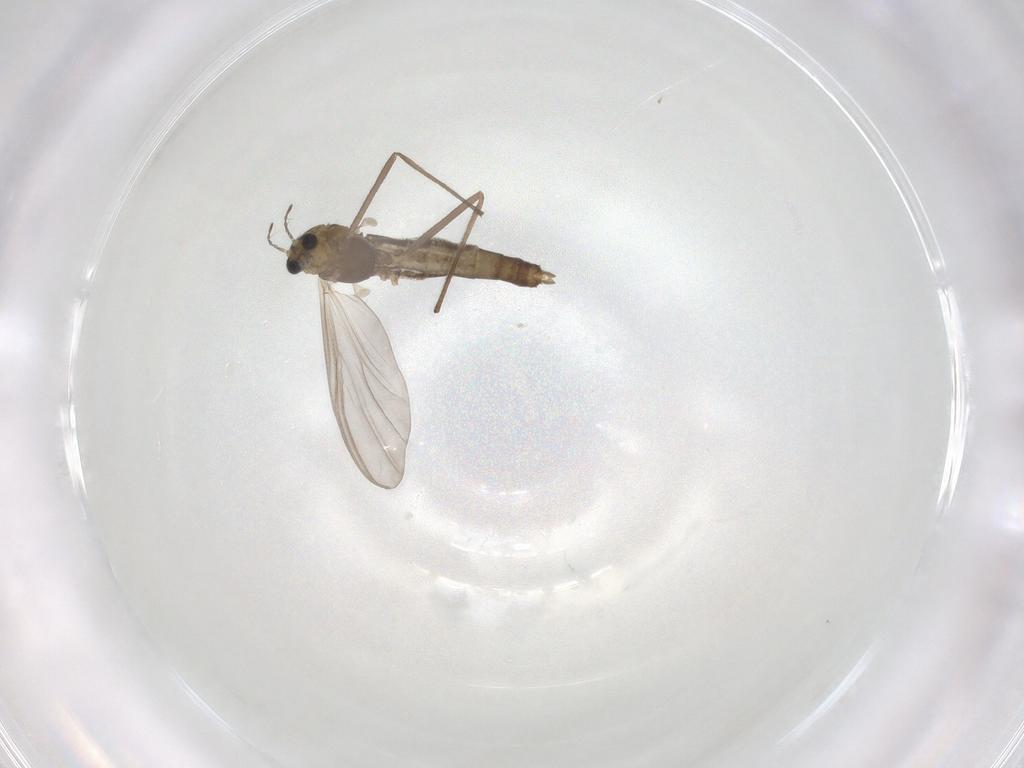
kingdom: Animalia
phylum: Arthropoda
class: Insecta
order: Diptera
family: Chironomidae
